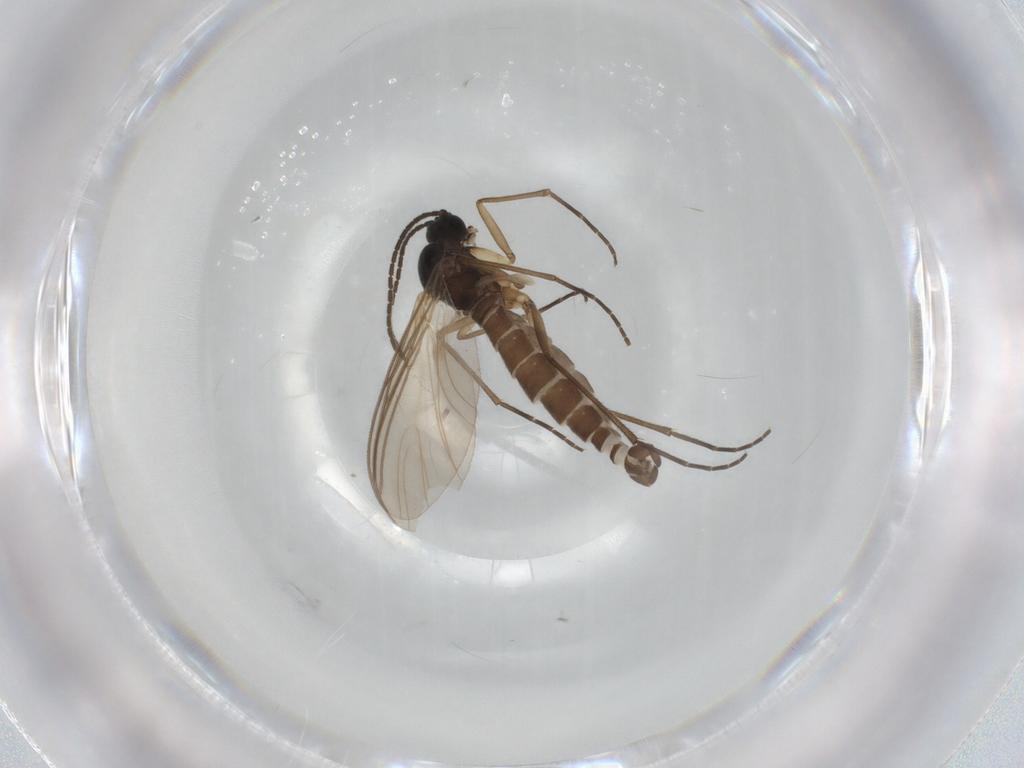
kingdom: Animalia
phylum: Arthropoda
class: Insecta
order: Diptera
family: Sciaridae
